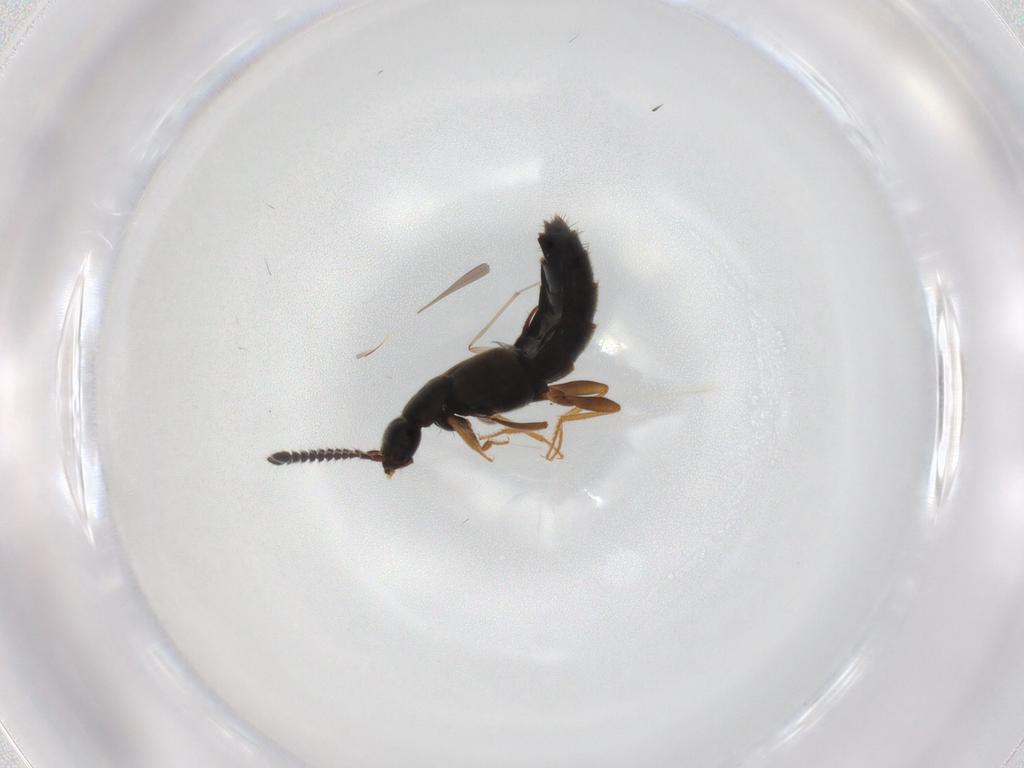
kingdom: Animalia
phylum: Arthropoda
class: Insecta
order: Coleoptera
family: Staphylinidae
